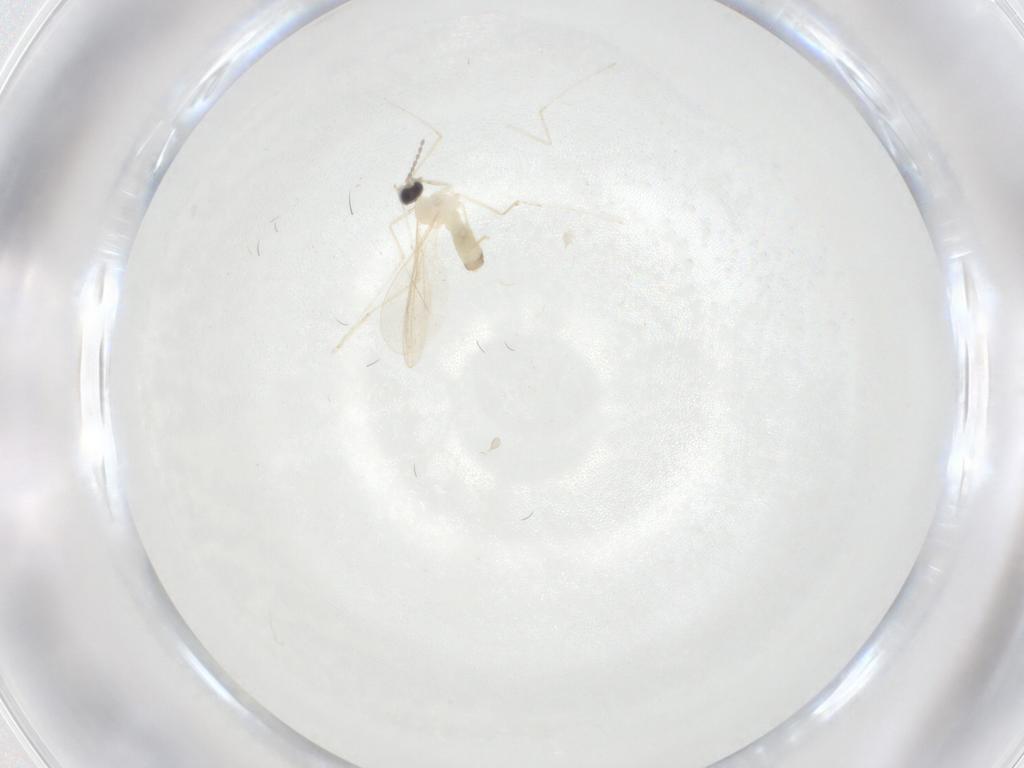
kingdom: Animalia
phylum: Arthropoda
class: Insecta
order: Diptera
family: Cecidomyiidae
